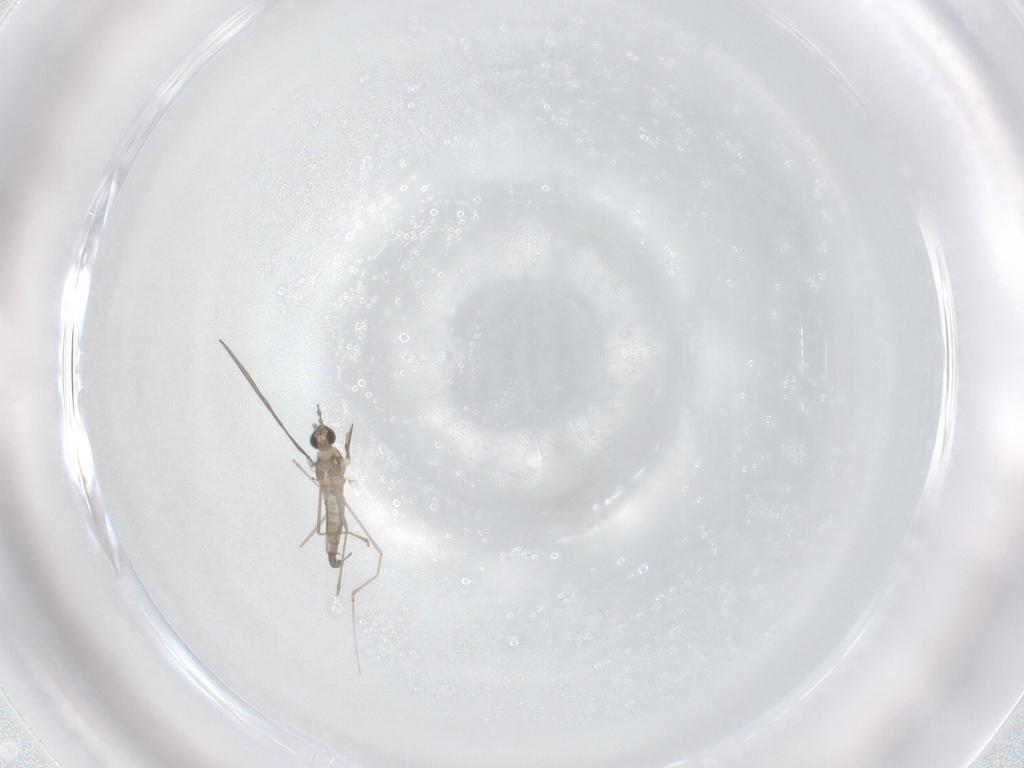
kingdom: Animalia
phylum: Arthropoda
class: Insecta
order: Diptera
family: Cecidomyiidae
